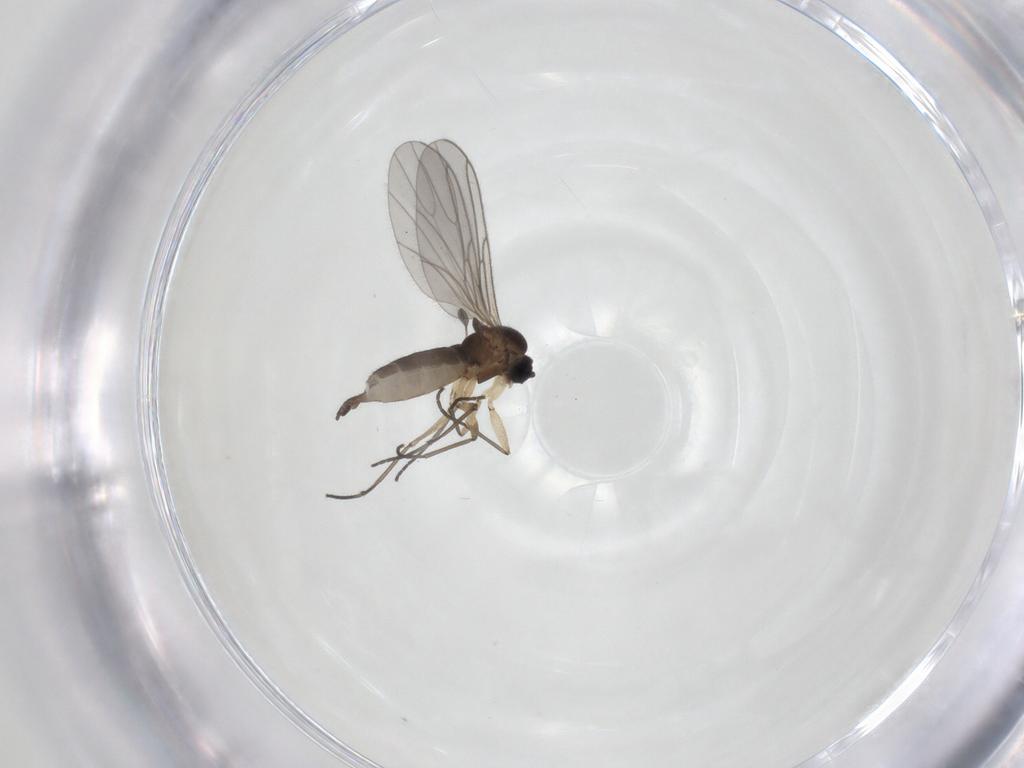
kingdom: Animalia
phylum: Arthropoda
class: Insecta
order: Diptera
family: Sciaridae
